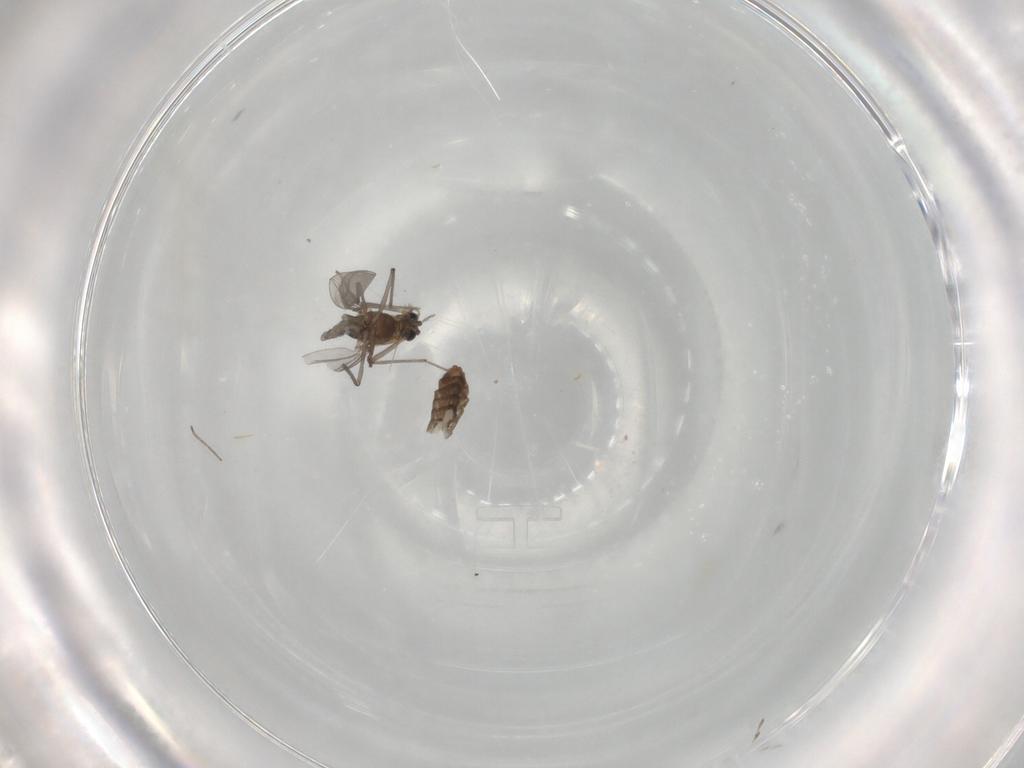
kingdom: Animalia
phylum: Arthropoda
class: Insecta
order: Diptera
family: Chironomidae
